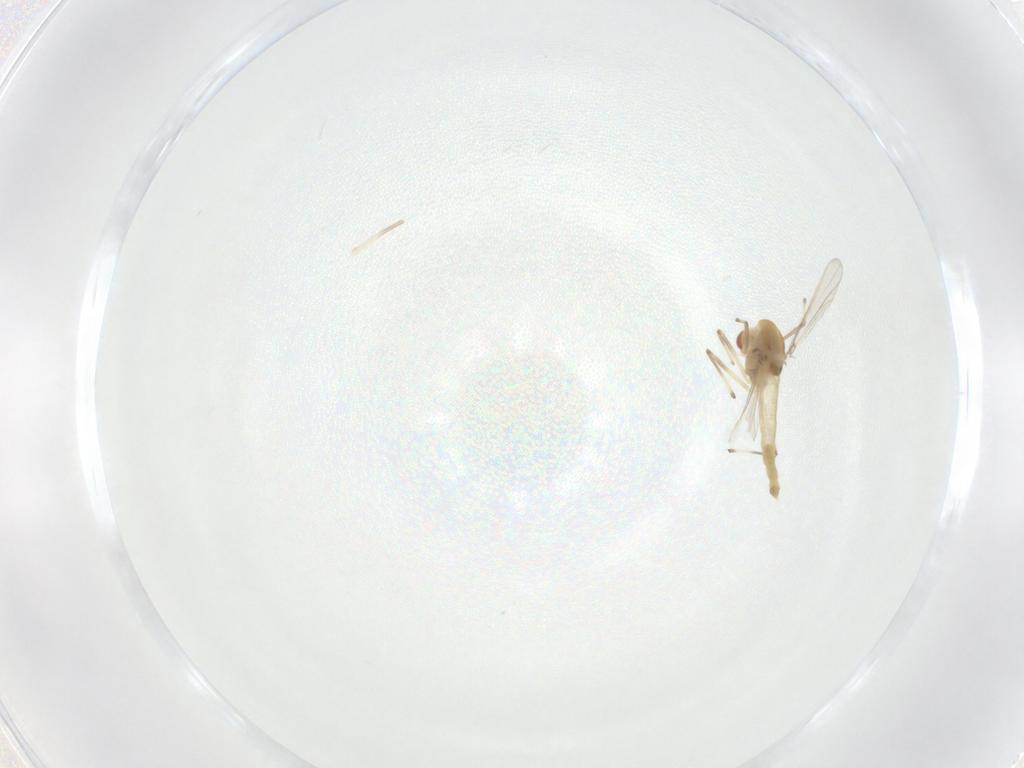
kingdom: Animalia
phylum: Arthropoda
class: Insecta
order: Diptera
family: Chironomidae
